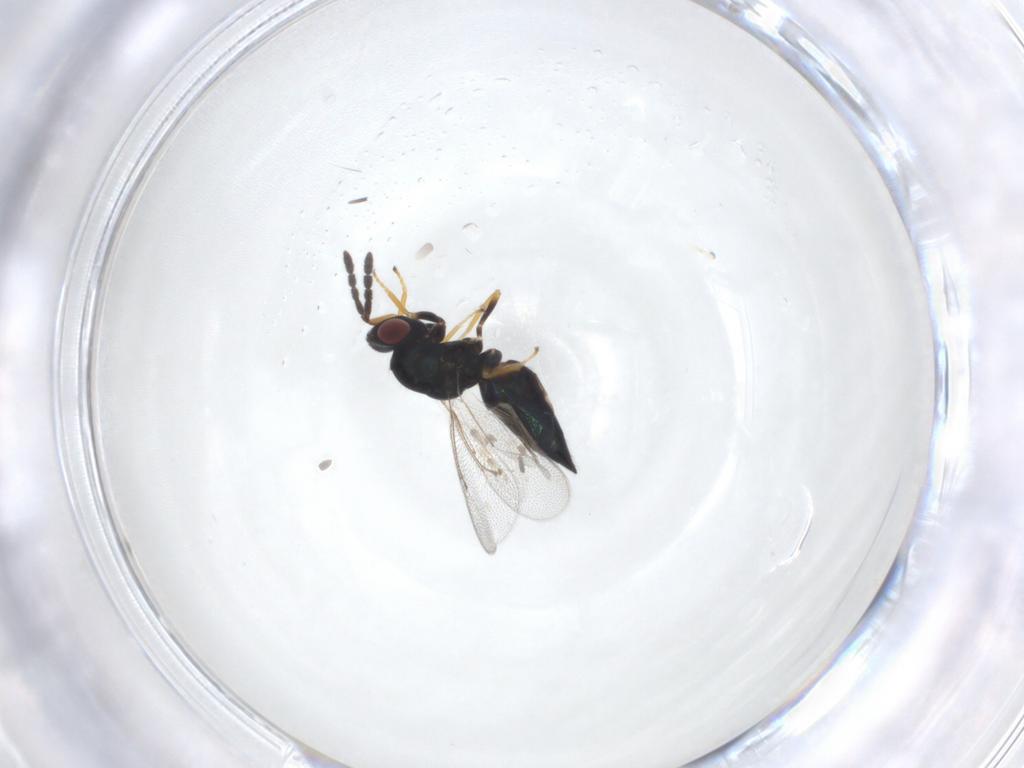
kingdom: Animalia
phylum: Arthropoda
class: Insecta
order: Hymenoptera
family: Eulophidae
